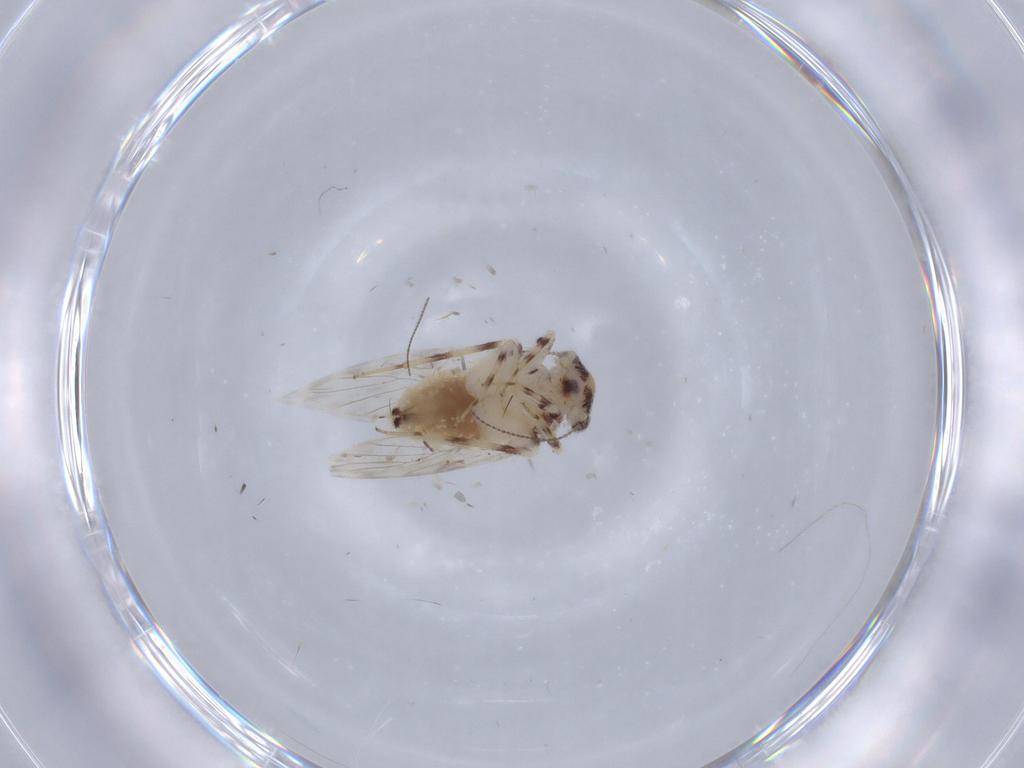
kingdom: Animalia
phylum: Arthropoda
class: Insecta
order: Psocodea
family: Lepidopsocidae
